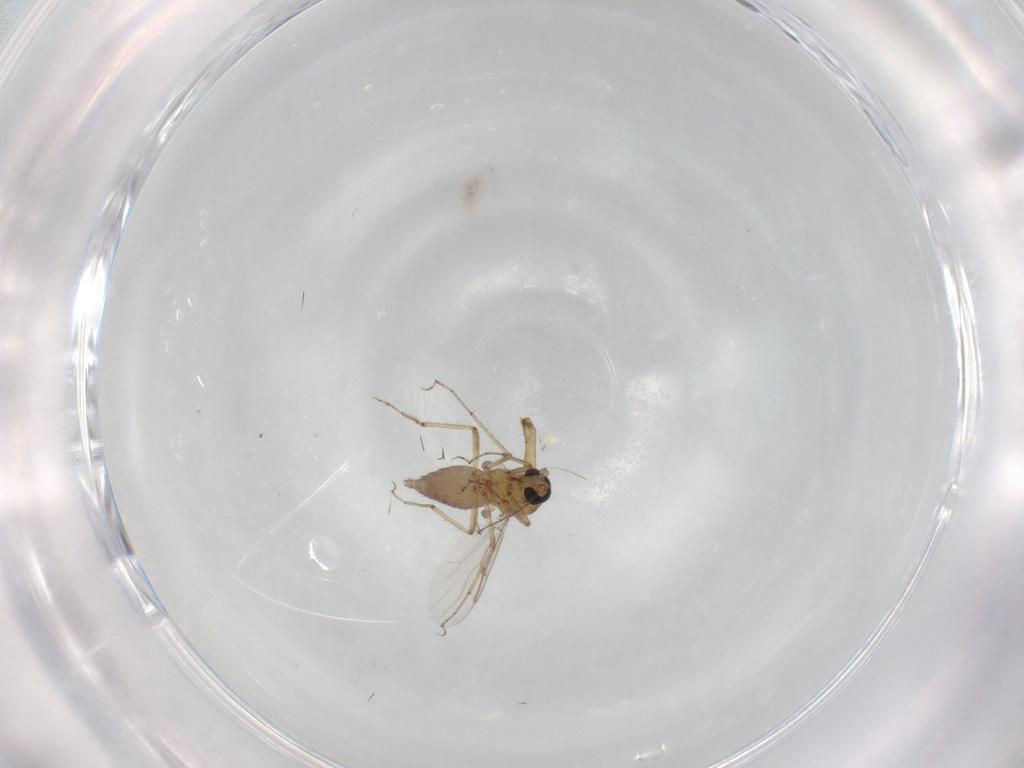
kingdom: Animalia
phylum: Arthropoda
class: Insecta
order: Diptera
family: Ceratopogonidae
